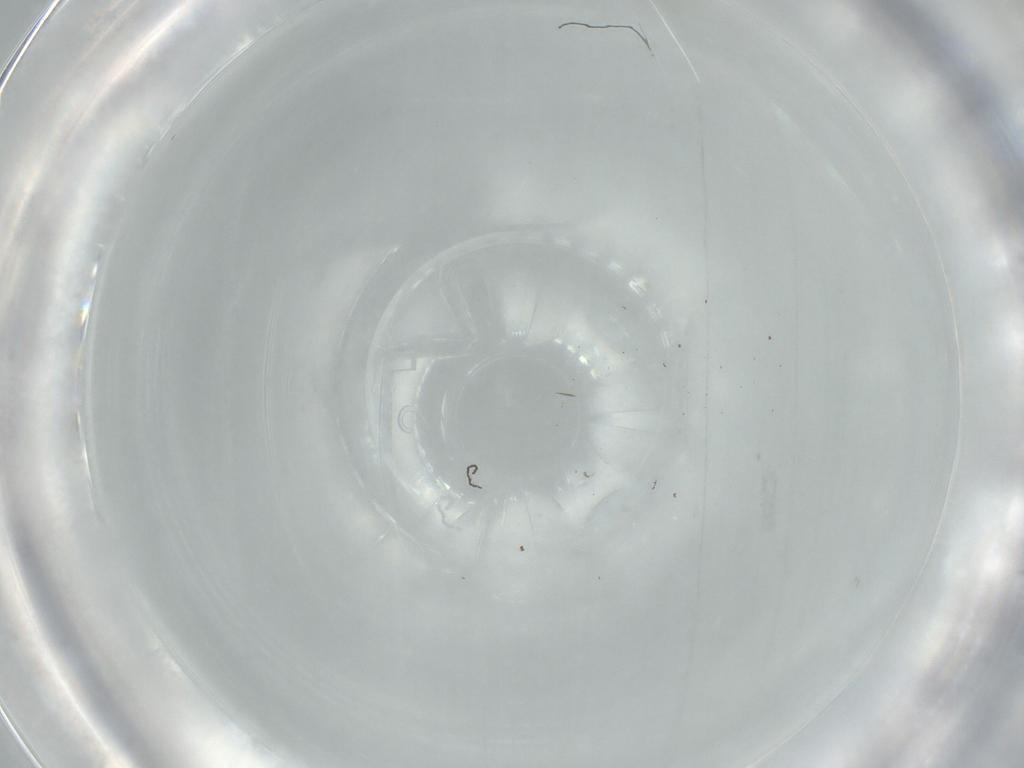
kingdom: Animalia
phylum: Arthropoda
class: Insecta
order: Diptera
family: Cecidomyiidae
